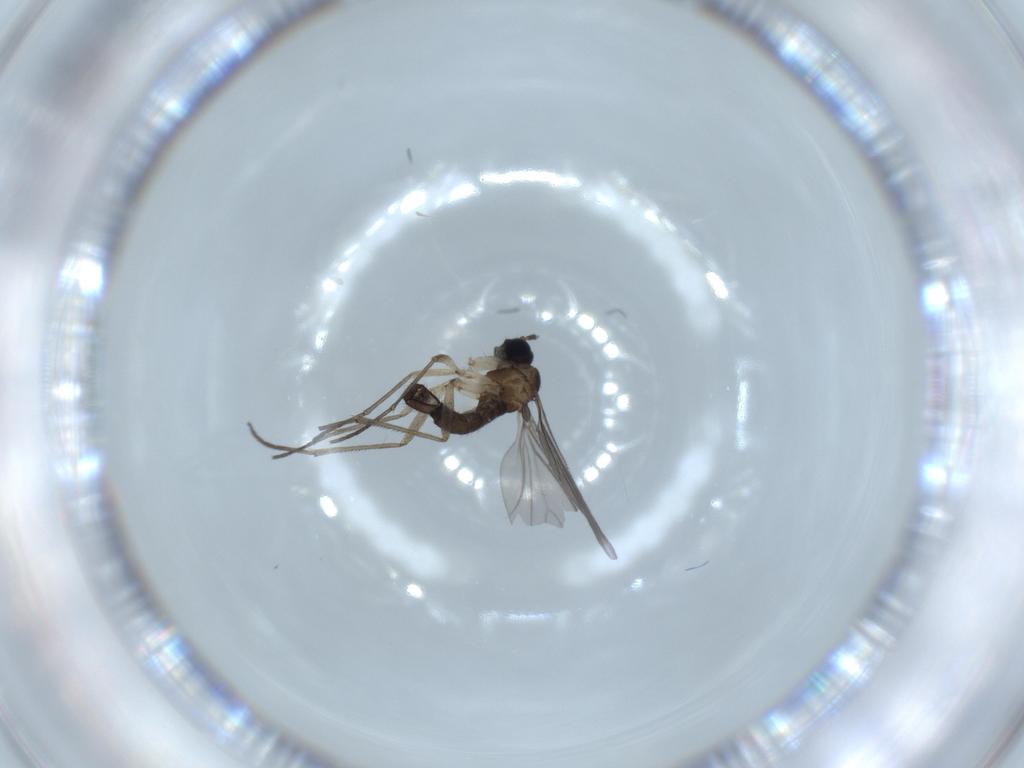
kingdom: Animalia
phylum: Arthropoda
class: Insecta
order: Diptera
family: Sciaridae
